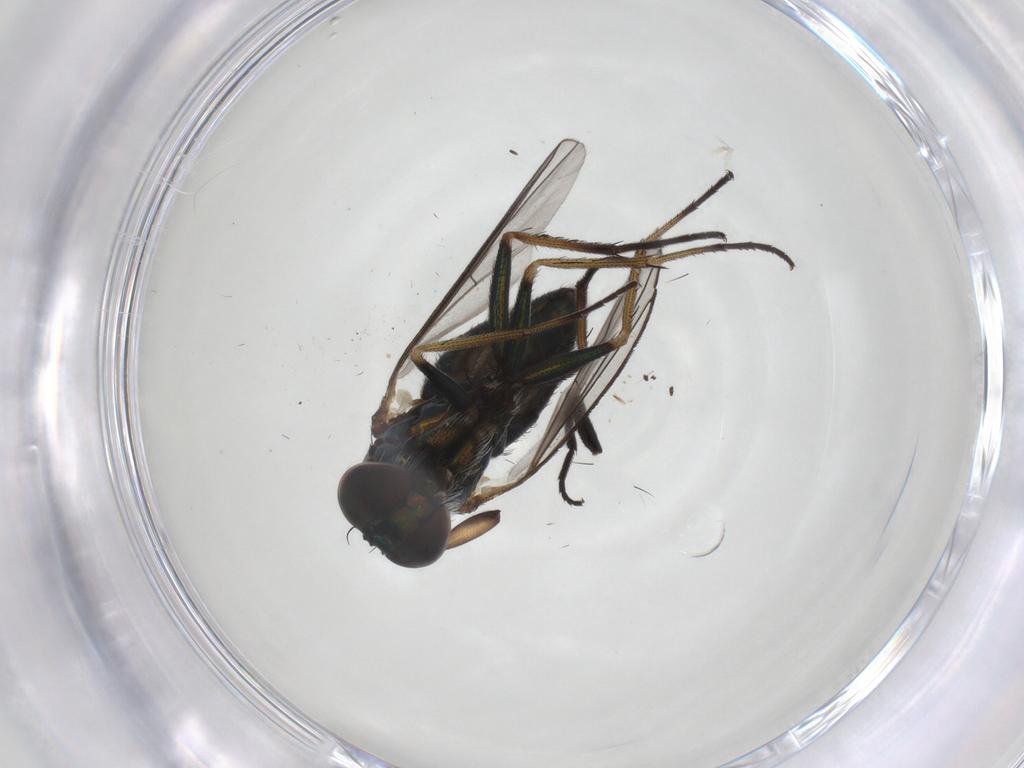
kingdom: Animalia
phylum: Arthropoda
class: Insecta
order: Diptera
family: Dolichopodidae
